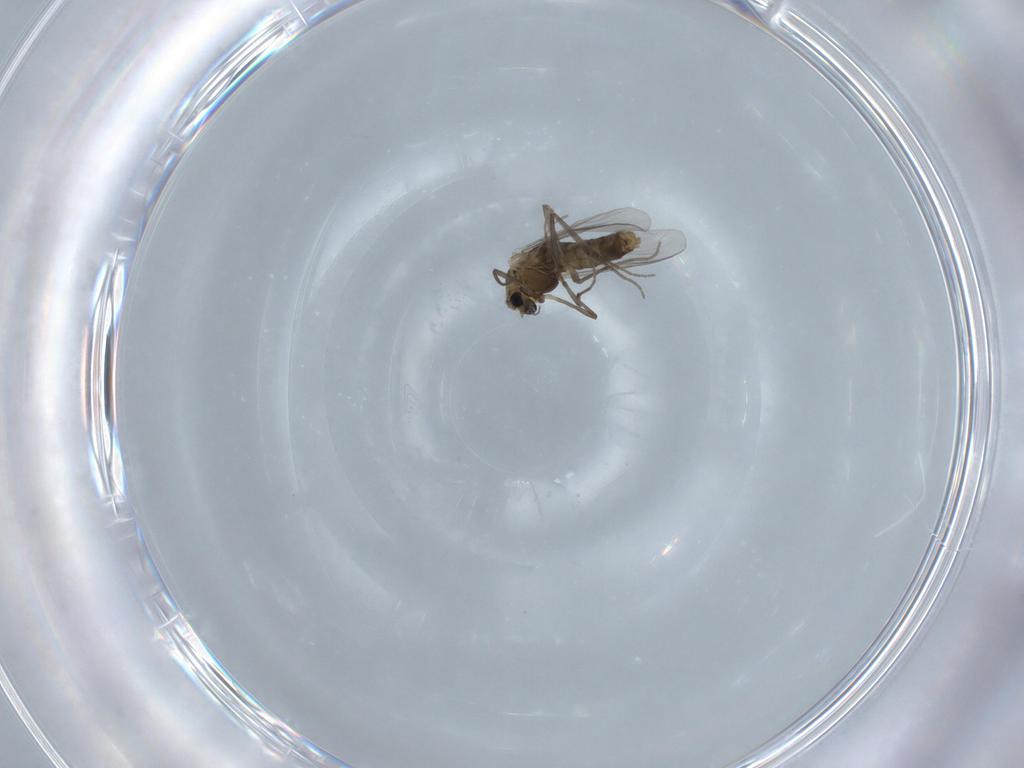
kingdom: Animalia
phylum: Arthropoda
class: Insecta
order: Diptera
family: Chironomidae
